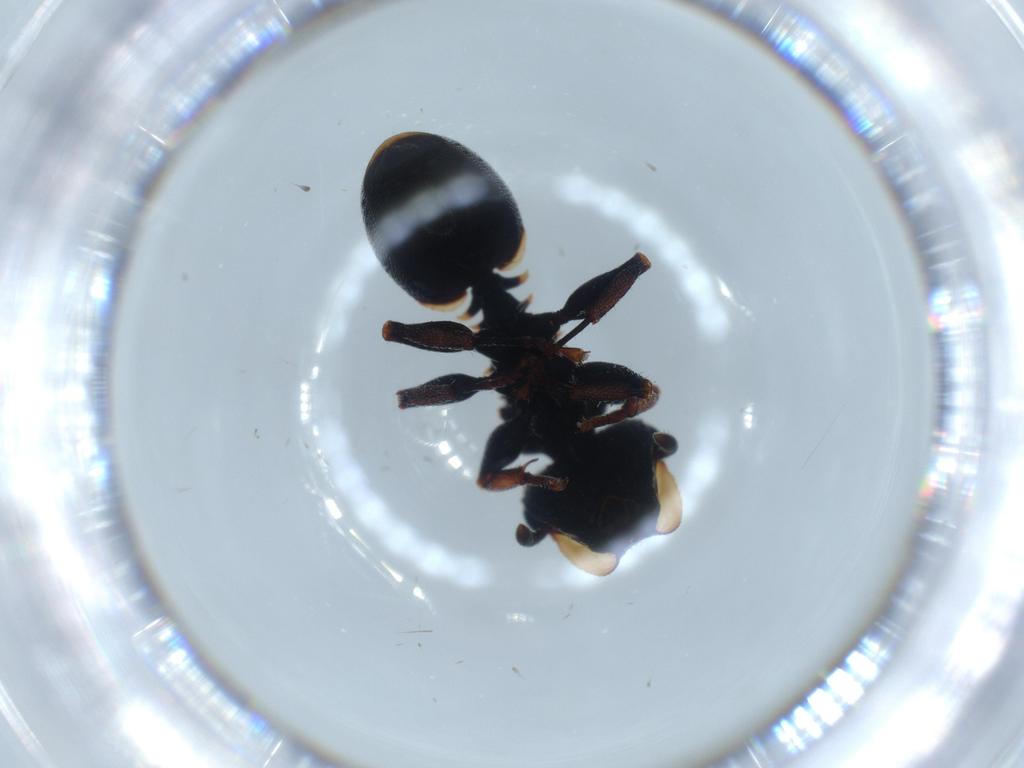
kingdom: Animalia
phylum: Arthropoda
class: Insecta
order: Hymenoptera
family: Formicidae
